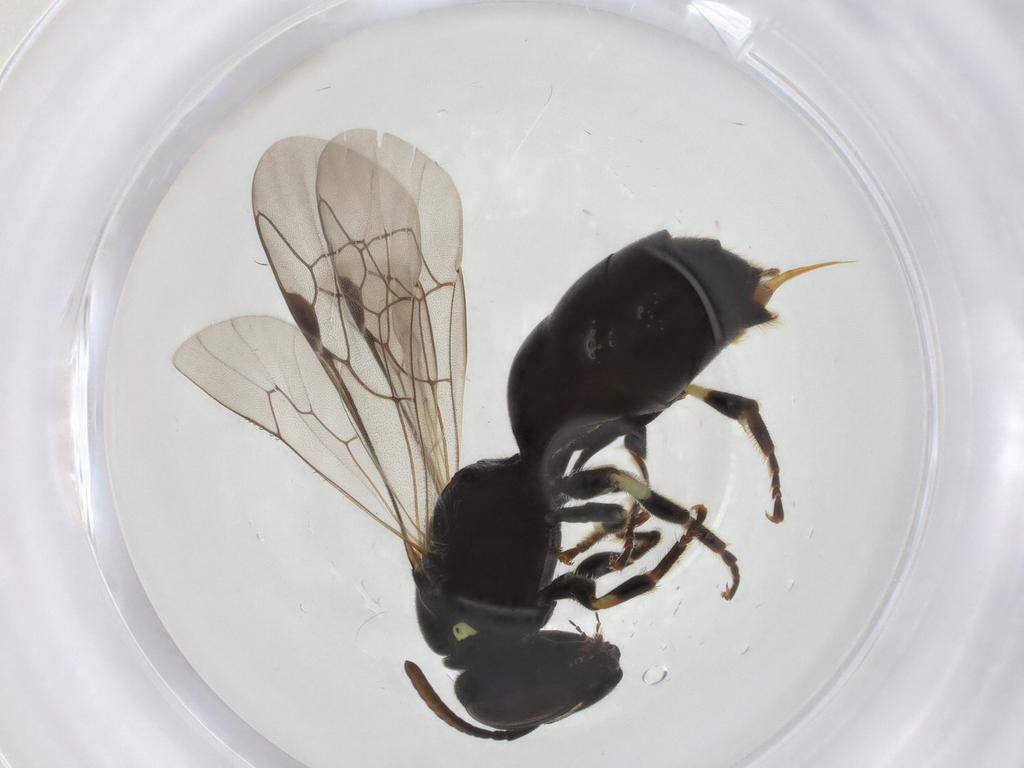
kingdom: Animalia
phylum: Arthropoda
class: Insecta
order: Hymenoptera
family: Colletidae
